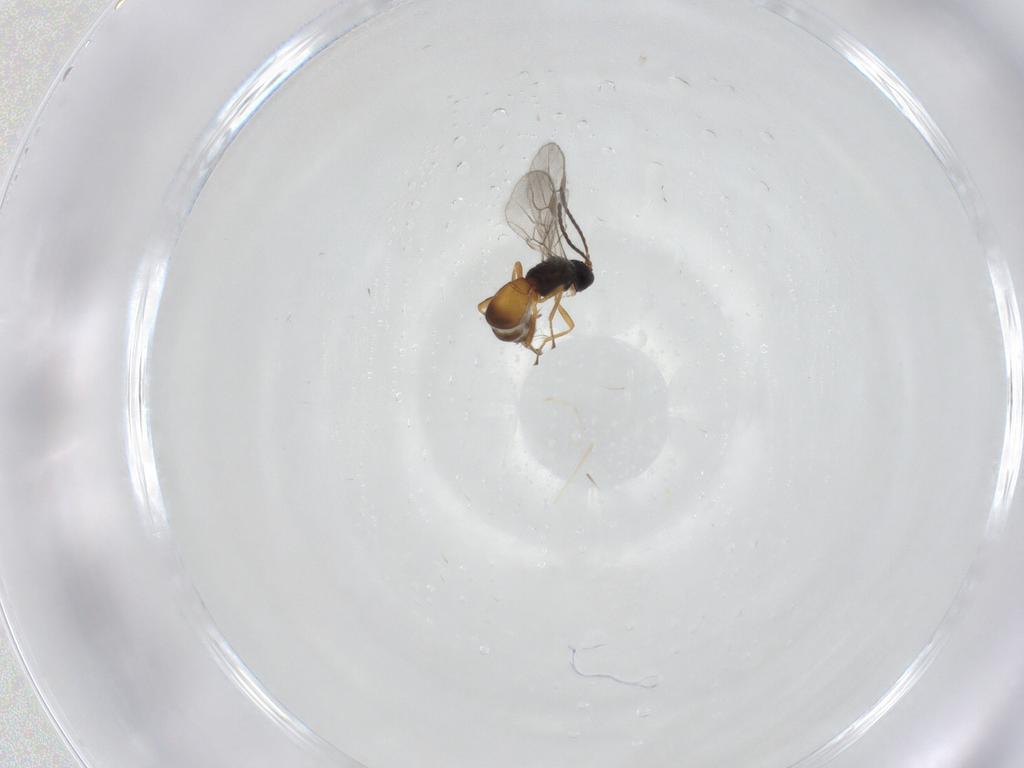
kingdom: Animalia
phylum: Arthropoda
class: Insecta
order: Hymenoptera
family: Braconidae
